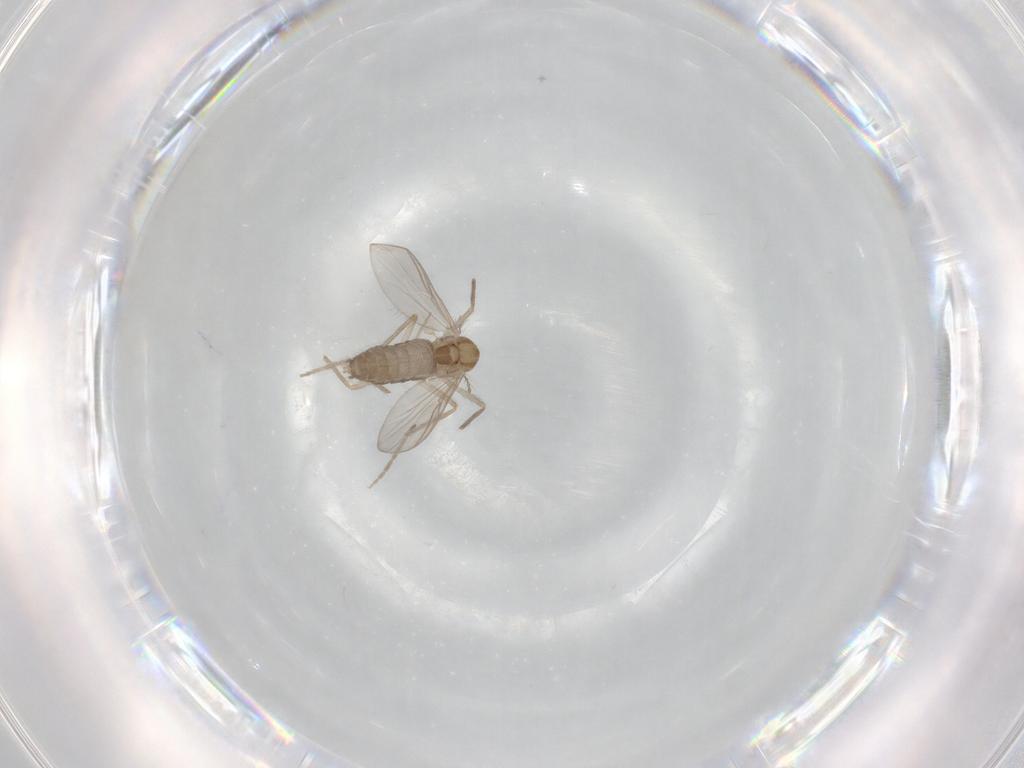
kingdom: Animalia
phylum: Arthropoda
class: Insecta
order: Diptera
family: Chironomidae
